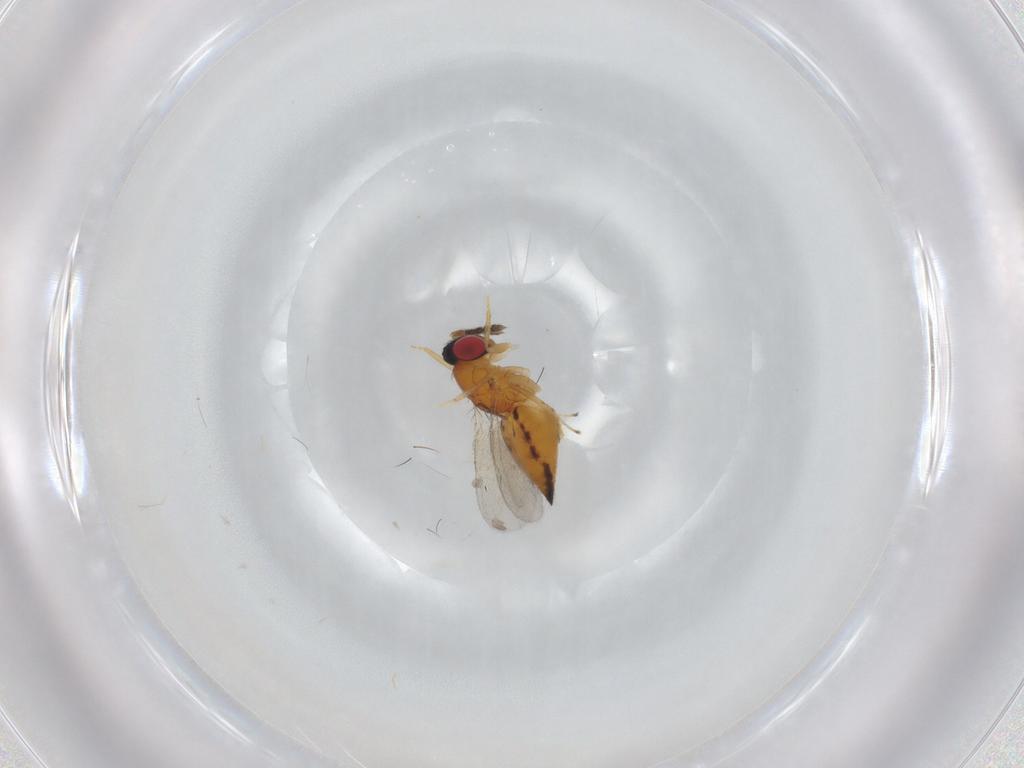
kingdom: Animalia
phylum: Arthropoda
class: Insecta
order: Hymenoptera
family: Eulophidae
